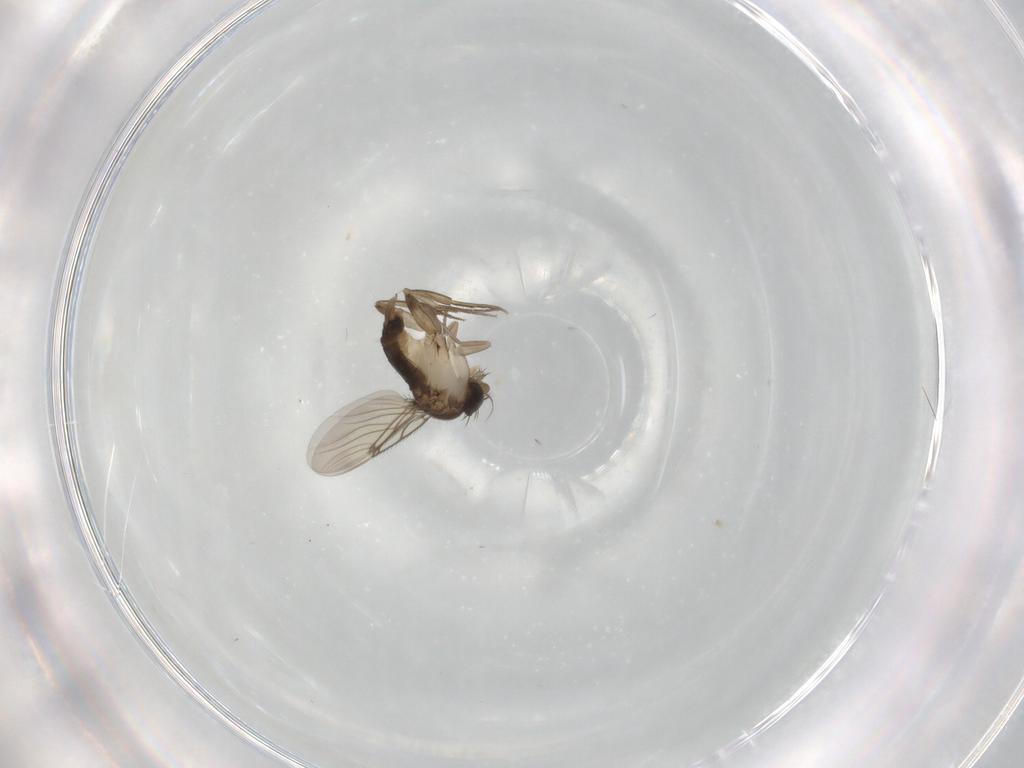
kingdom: Animalia
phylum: Arthropoda
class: Insecta
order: Diptera
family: Phoridae
